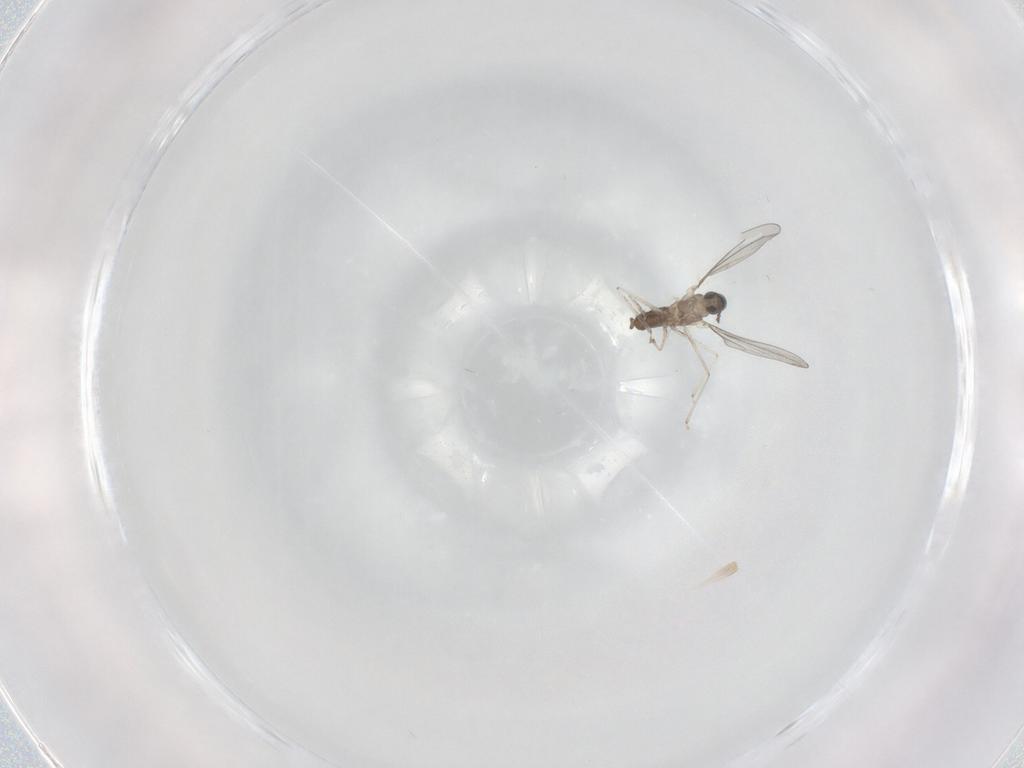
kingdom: Animalia
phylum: Arthropoda
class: Insecta
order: Diptera
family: Cecidomyiidae
